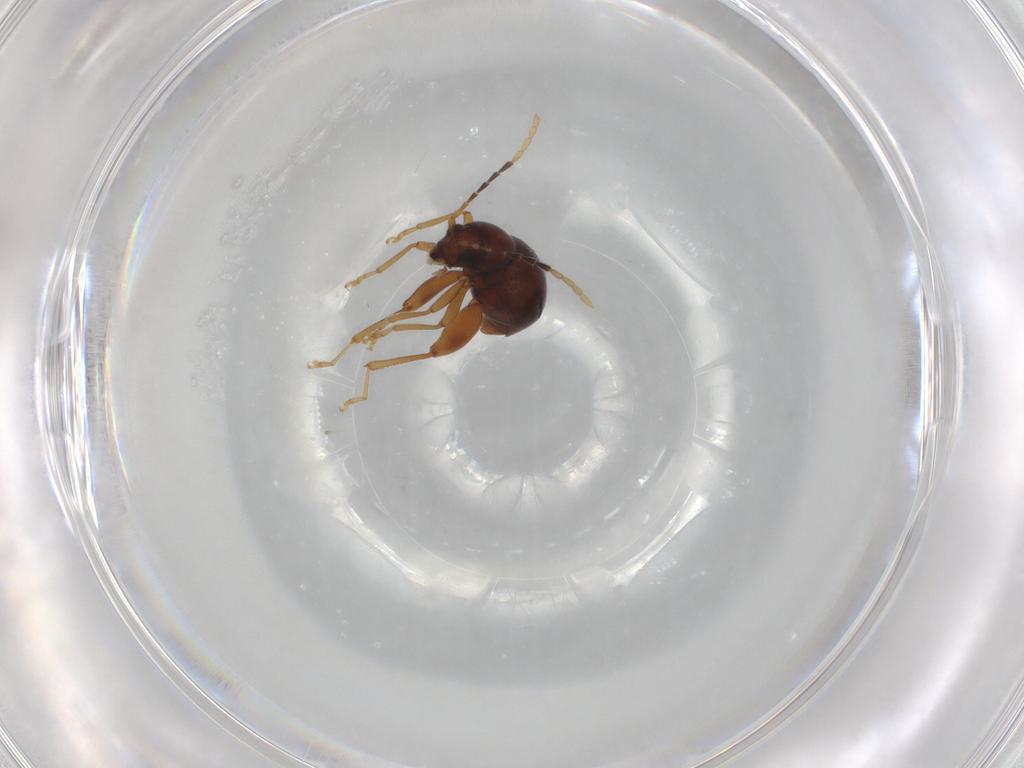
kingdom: Animalia
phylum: Arthropoda
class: Insecta
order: Coleoptera
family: Chrysomelidae
